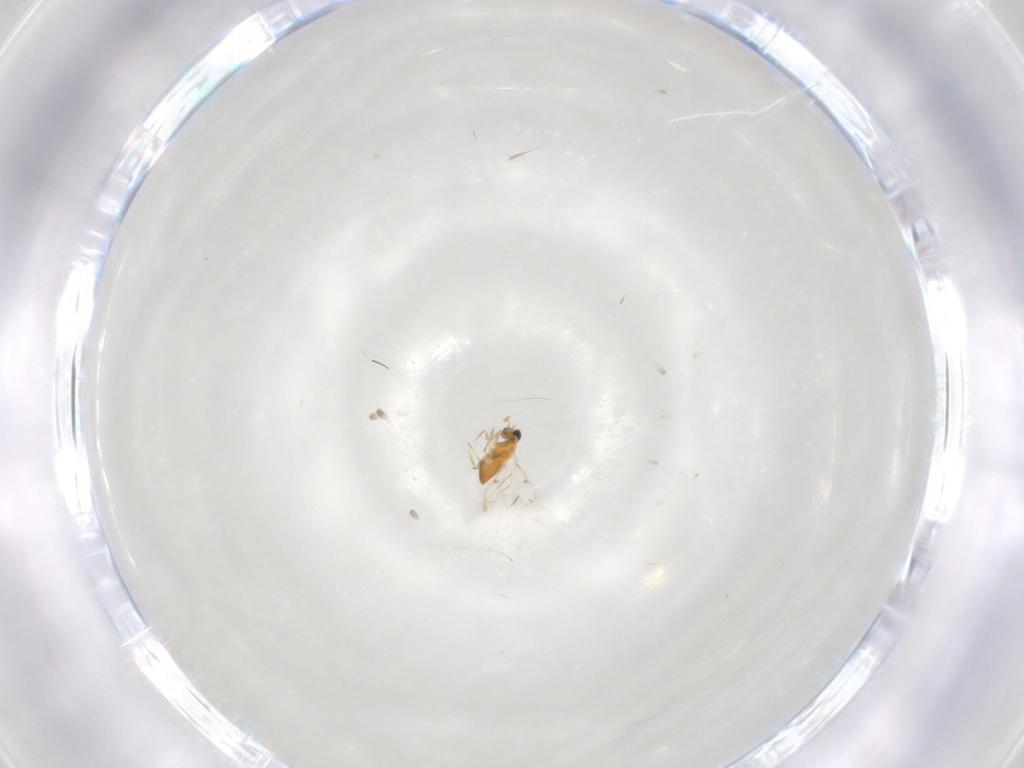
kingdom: Animalia
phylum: Arthropoda
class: Insecta
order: Hymenoptera
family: Trichogrammatidae
